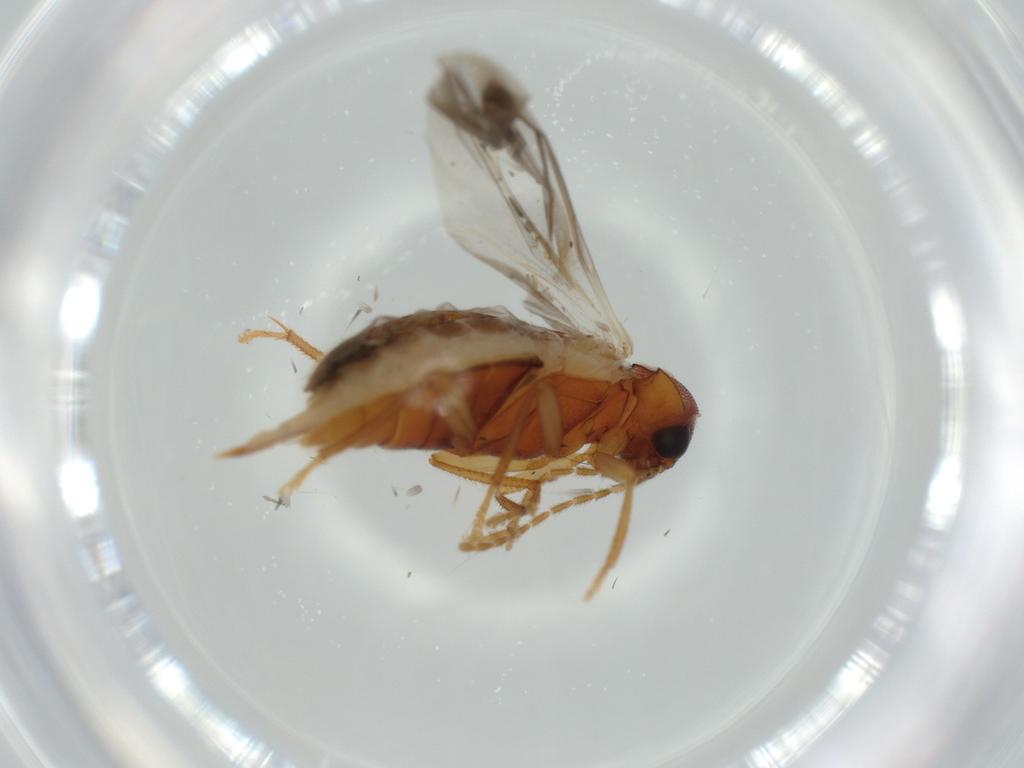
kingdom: Animalia
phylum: Arthropoda
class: Insecta
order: Coleoptera
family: Ptilodactylidae
